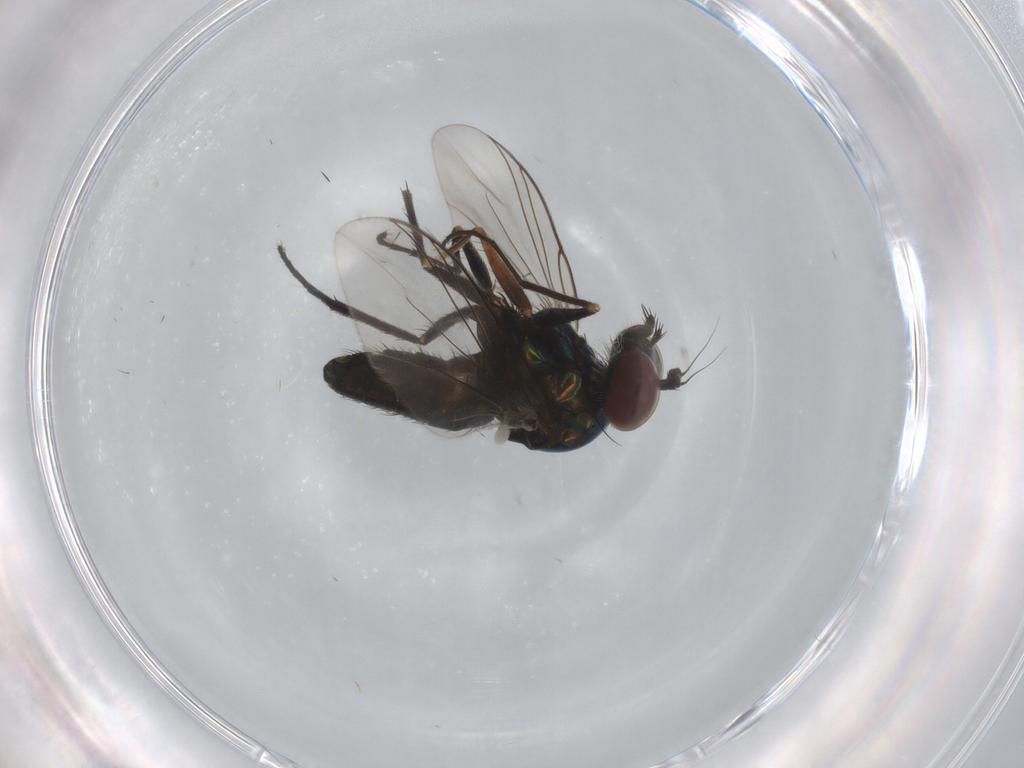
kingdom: Animalia
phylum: Arthropoda
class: Insecta
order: Diptera
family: Dolichopodidae
